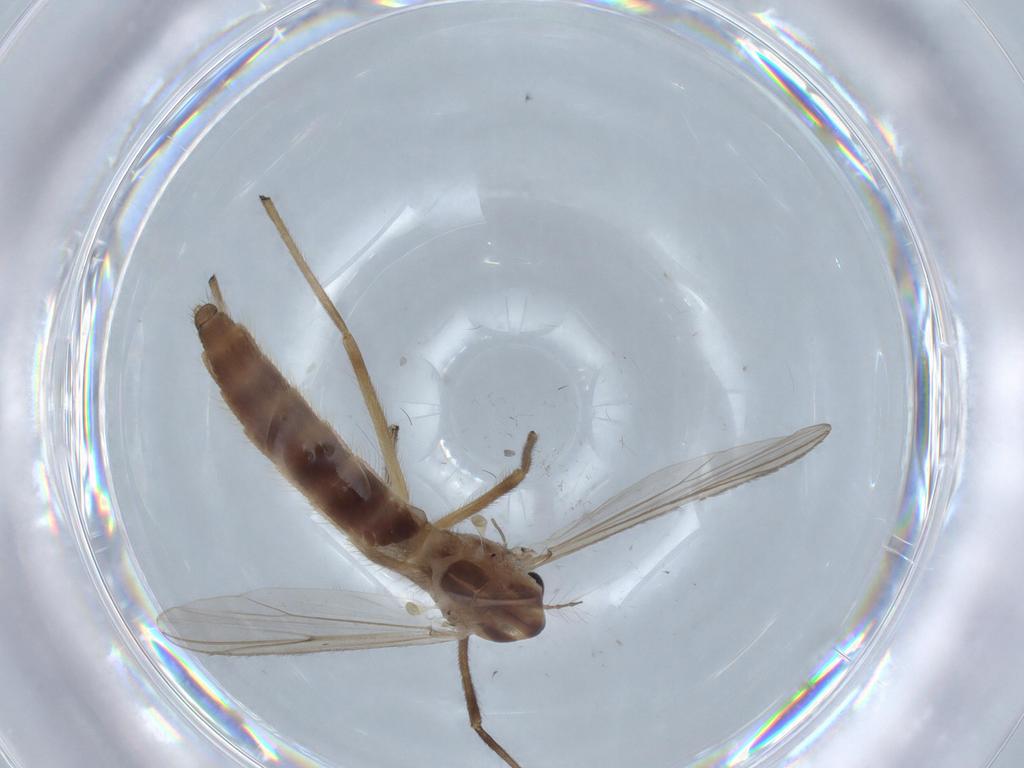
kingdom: Animalia
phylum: Arthropoda
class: Insecta
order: Diptera
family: Chironomidae
